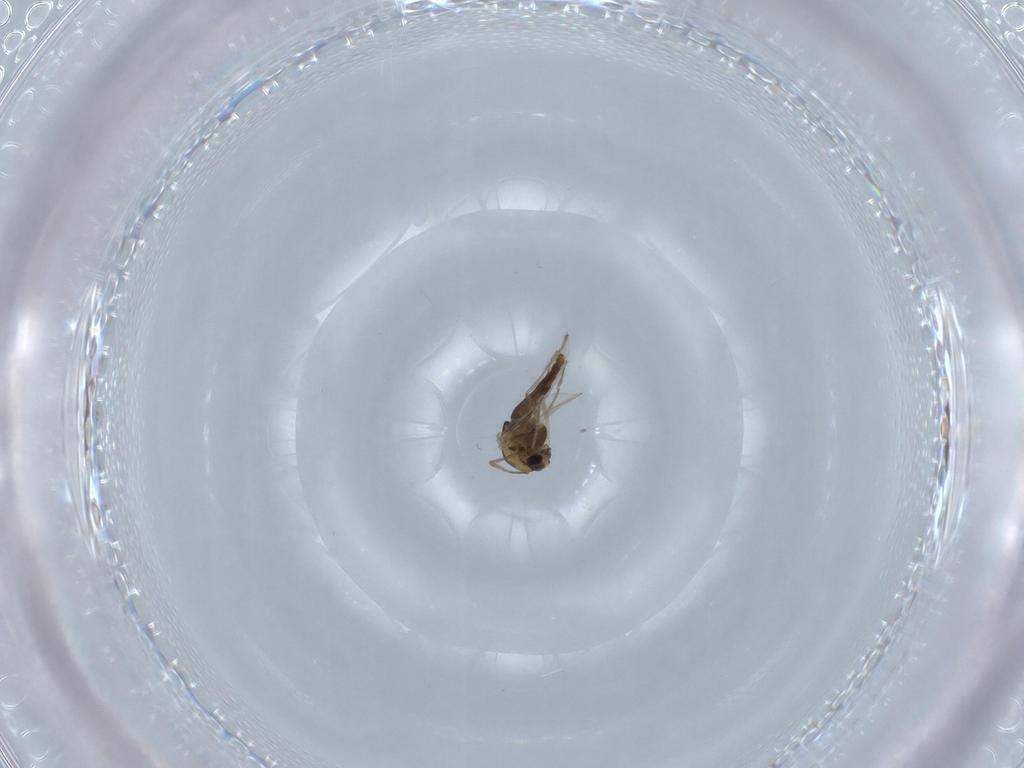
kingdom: Animalia
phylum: Arthropoda
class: Insecta
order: Diptera
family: Chironomidae
